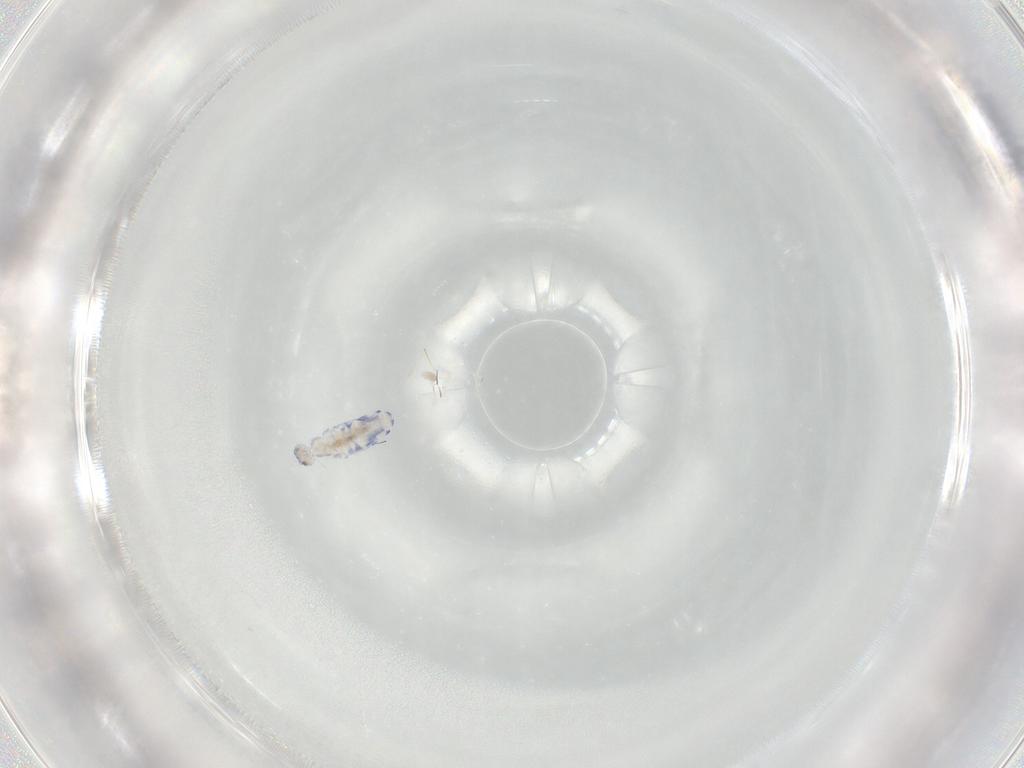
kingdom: Animalia
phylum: Arthropoda
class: Collembola
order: Entomobryomorpha
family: Entomobryidae
